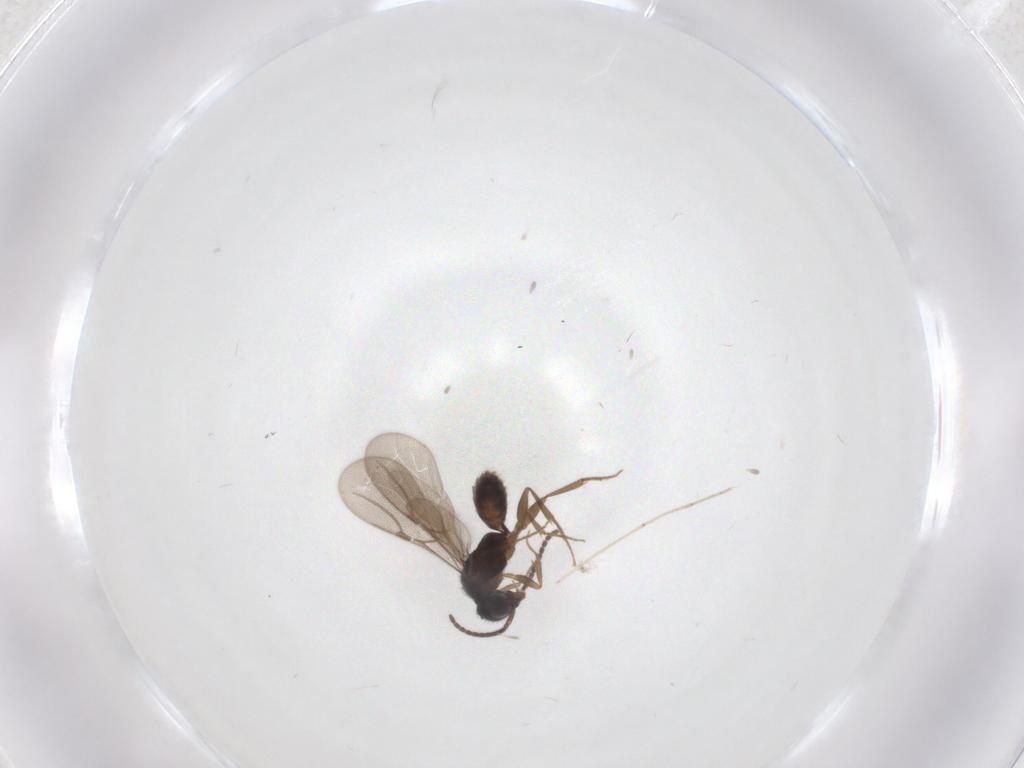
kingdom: Animalia
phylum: Arthropoda
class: Insecta
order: Hymenoptera
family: Bethylidae
